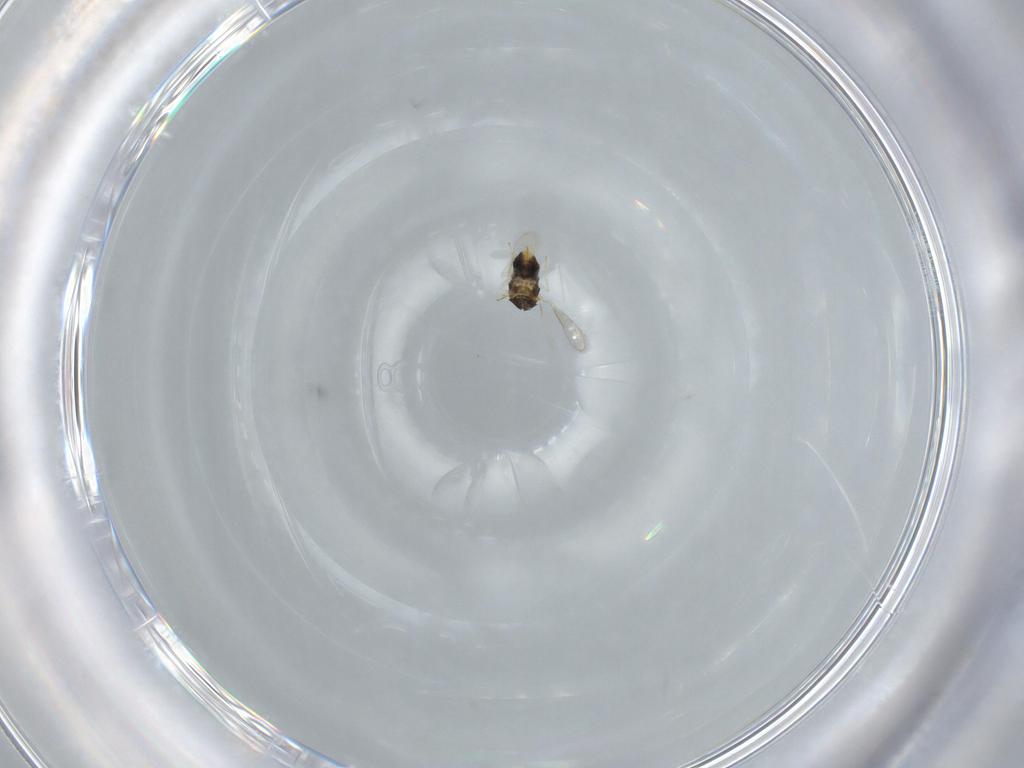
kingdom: Animalia
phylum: Arthropoda
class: Insecta
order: Hymenoptera
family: Aphelinidae
